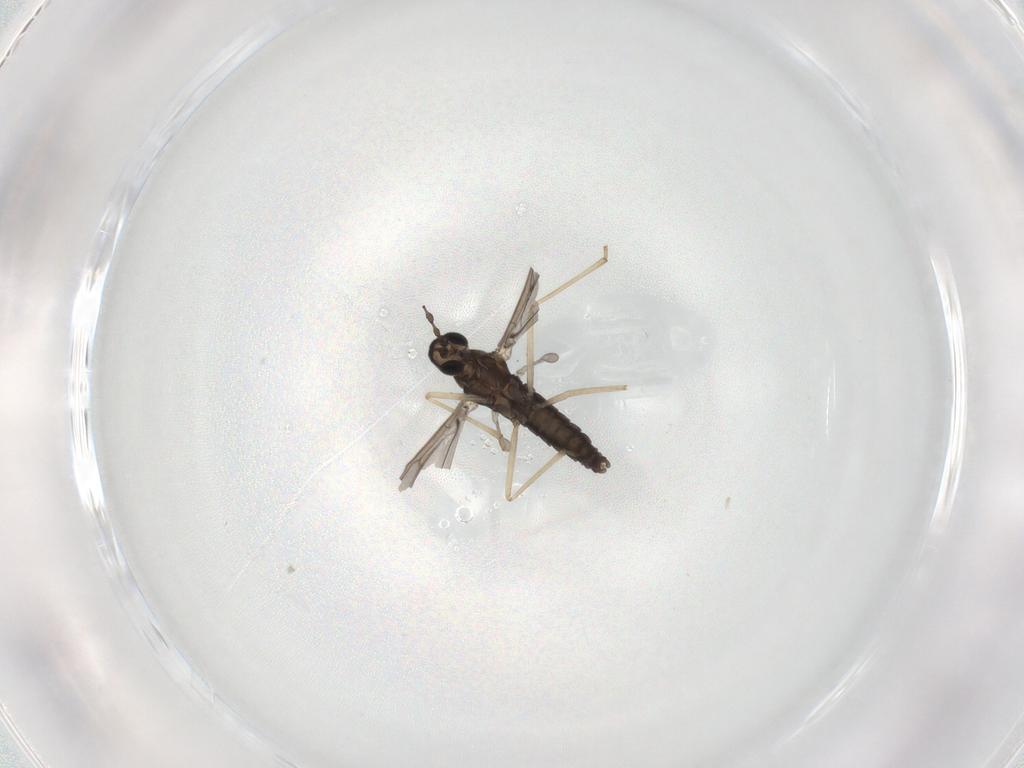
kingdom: Animalia
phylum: Arthropoda
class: Insecta
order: Diptera
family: Cecidomyiidae
